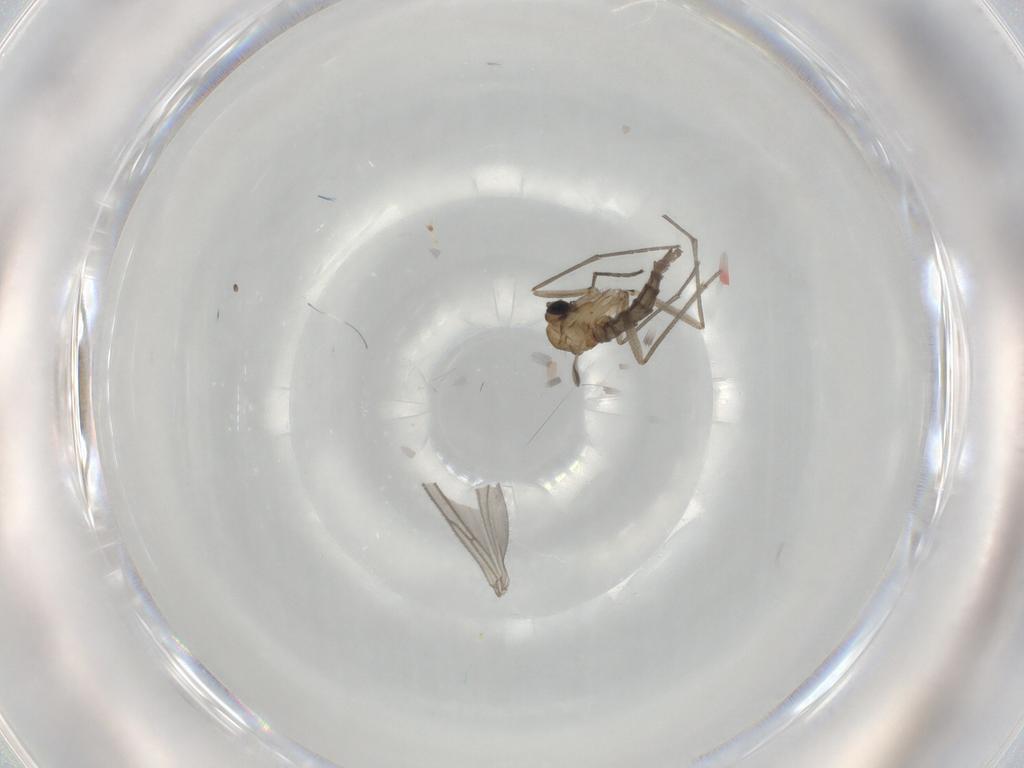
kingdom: Animalia
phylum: Arthropoda
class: Insecta
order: Diptera
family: Sciaridae
